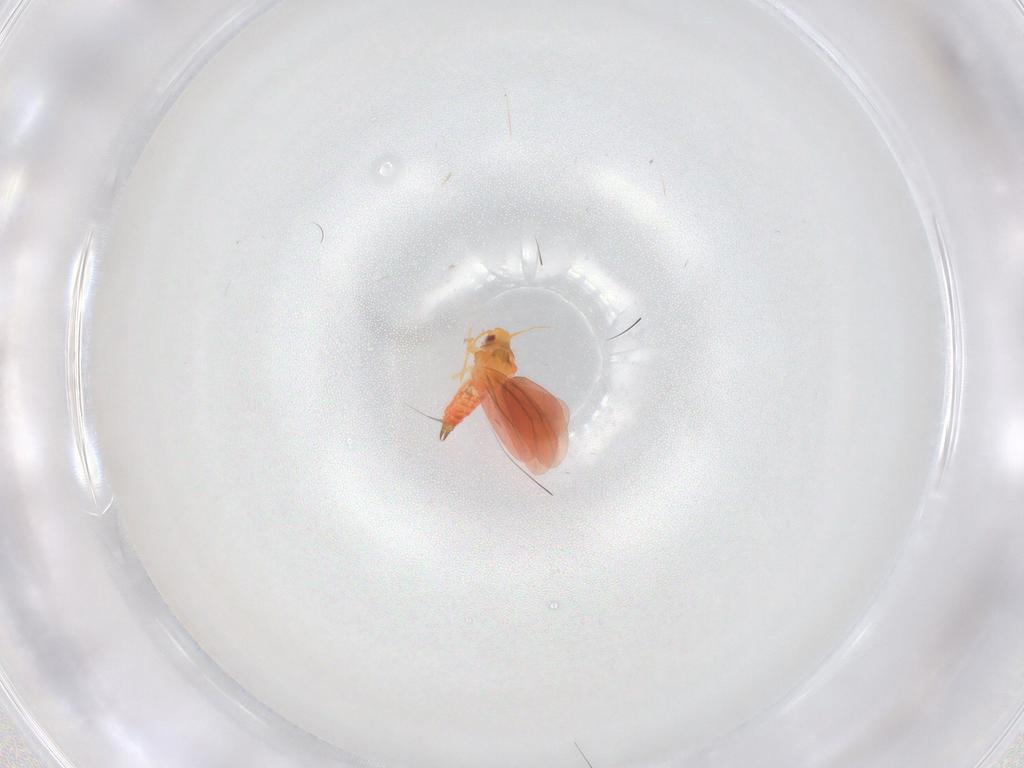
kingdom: Animalia
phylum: Arthropoda
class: Insecta
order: Hemiptera
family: Aleyrodidae
